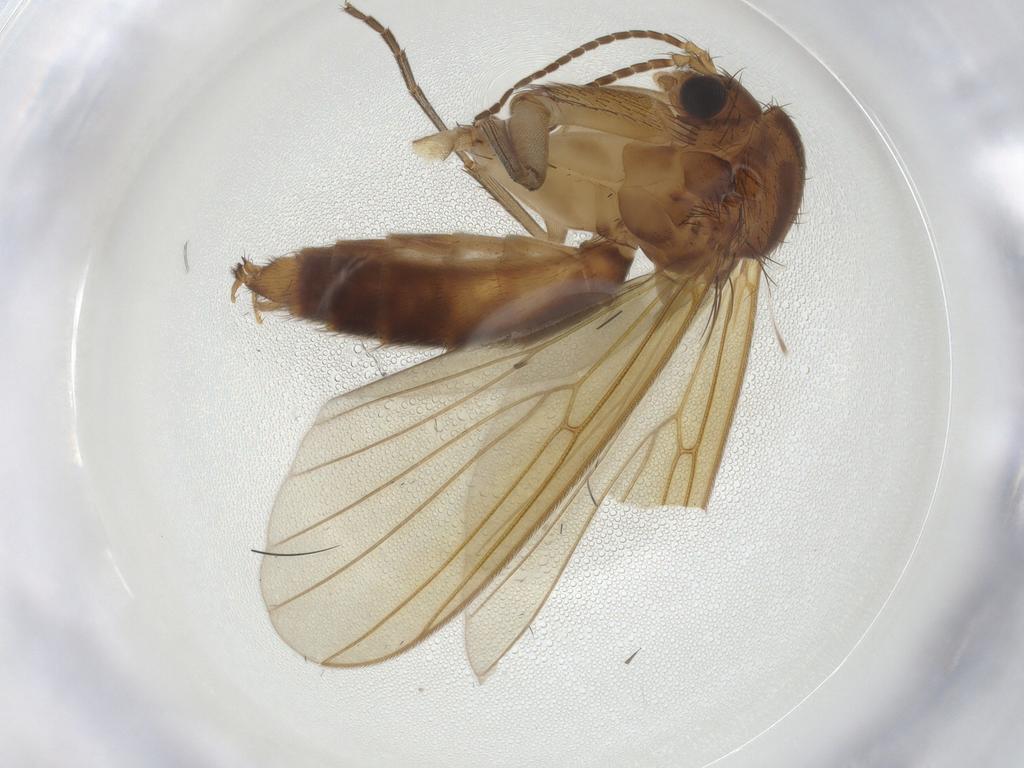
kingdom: Animalia
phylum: Arthropoda
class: Insecta
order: Diptera
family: Mycetophilidae
